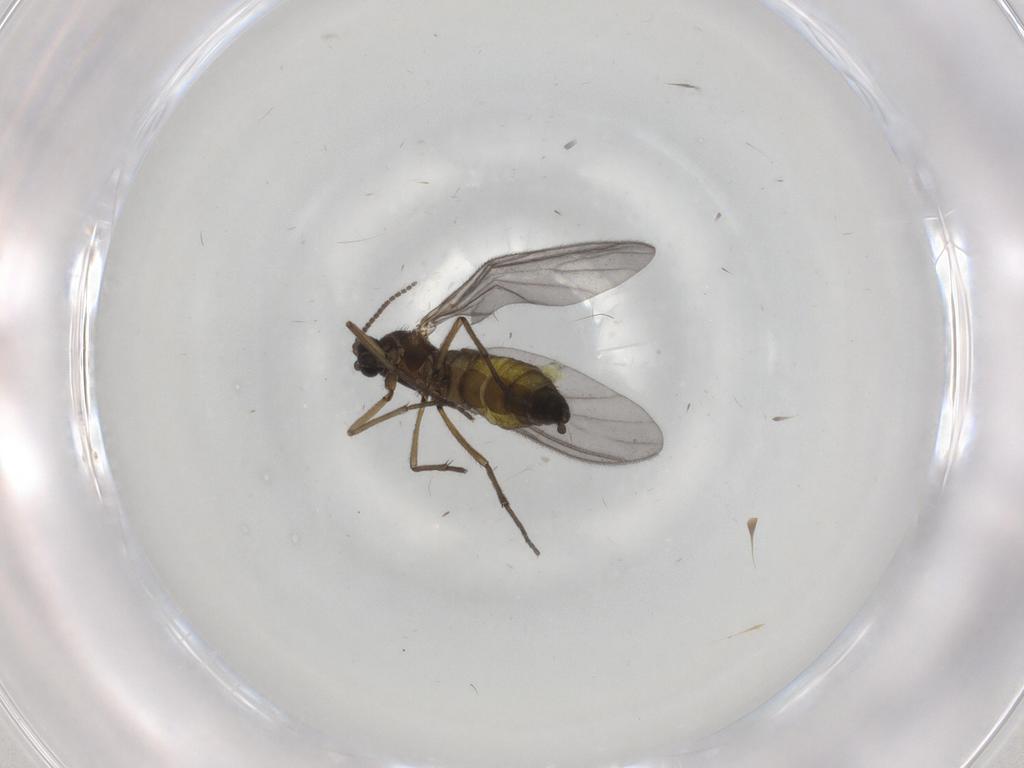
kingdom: Animalia
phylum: Arthropoda
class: Insecta
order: Diptera
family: Sciaridae
